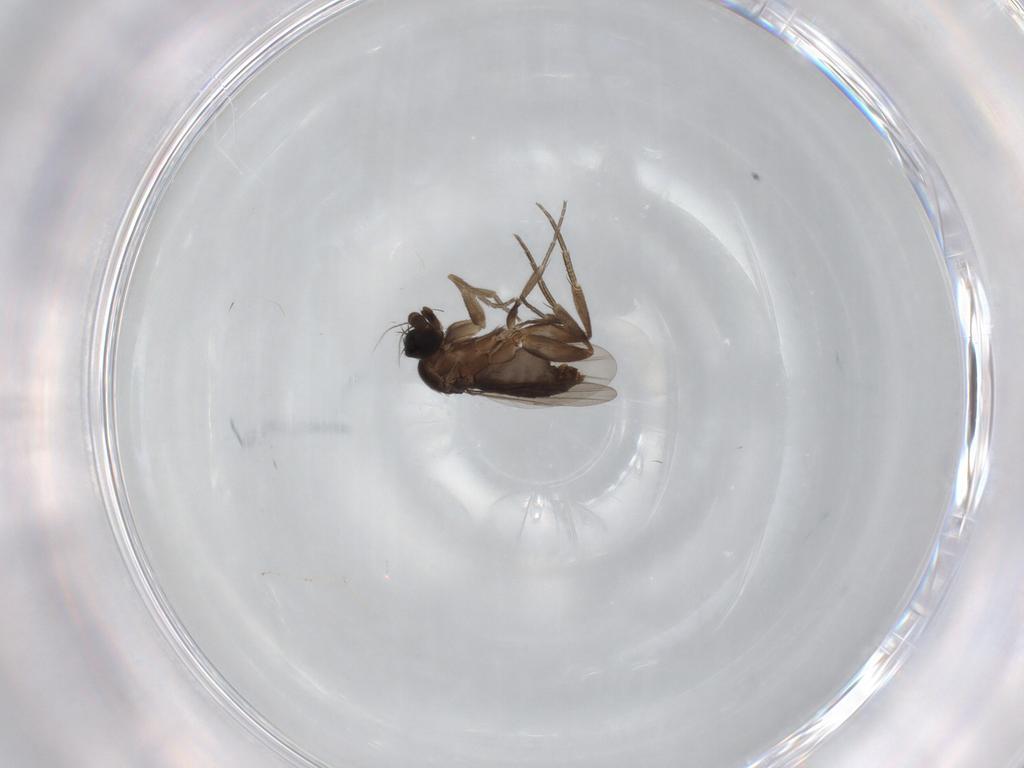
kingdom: Animalia
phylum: Arthropoda
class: Insecta
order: Diptera
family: Phoridae
